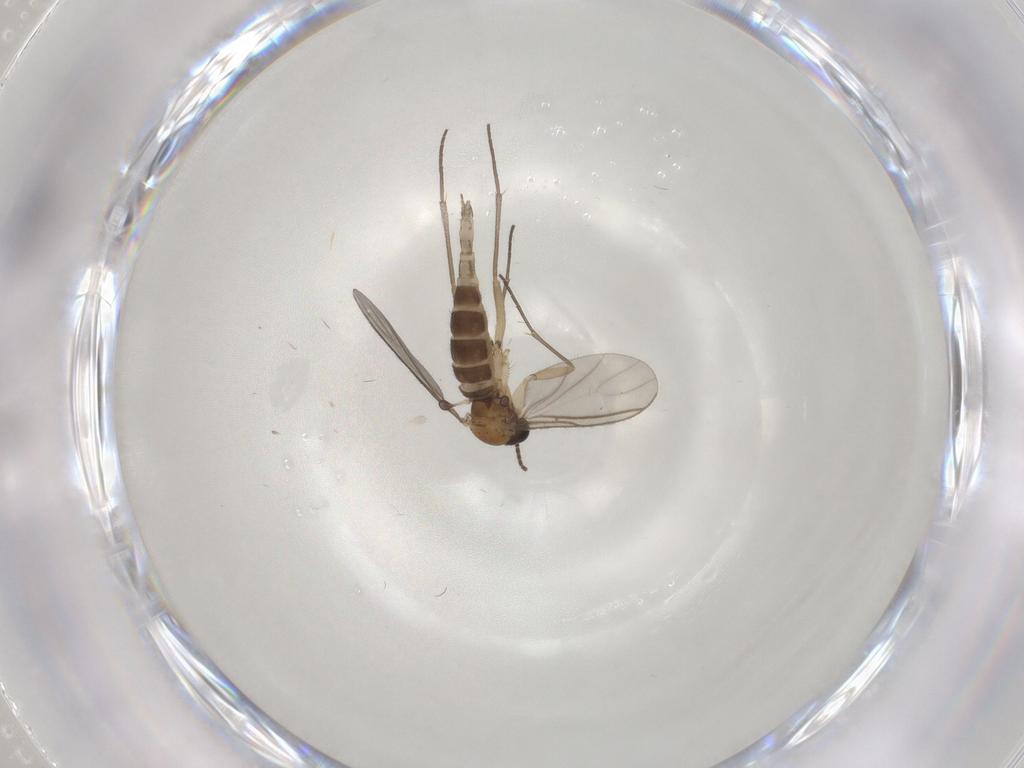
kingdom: Animalia
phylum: Arthropoda
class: Insecta
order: Diptera
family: Sciaridae
